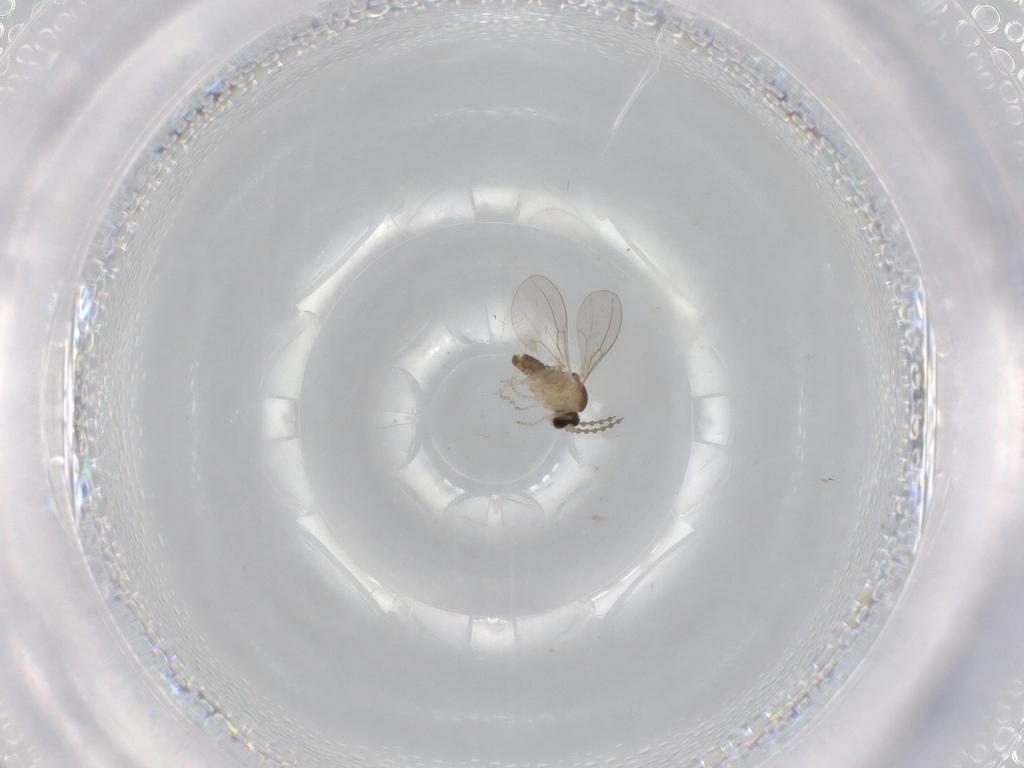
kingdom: Animalia
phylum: Arthropoda
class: Insecta
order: Diptera
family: Cecidomyiidae
